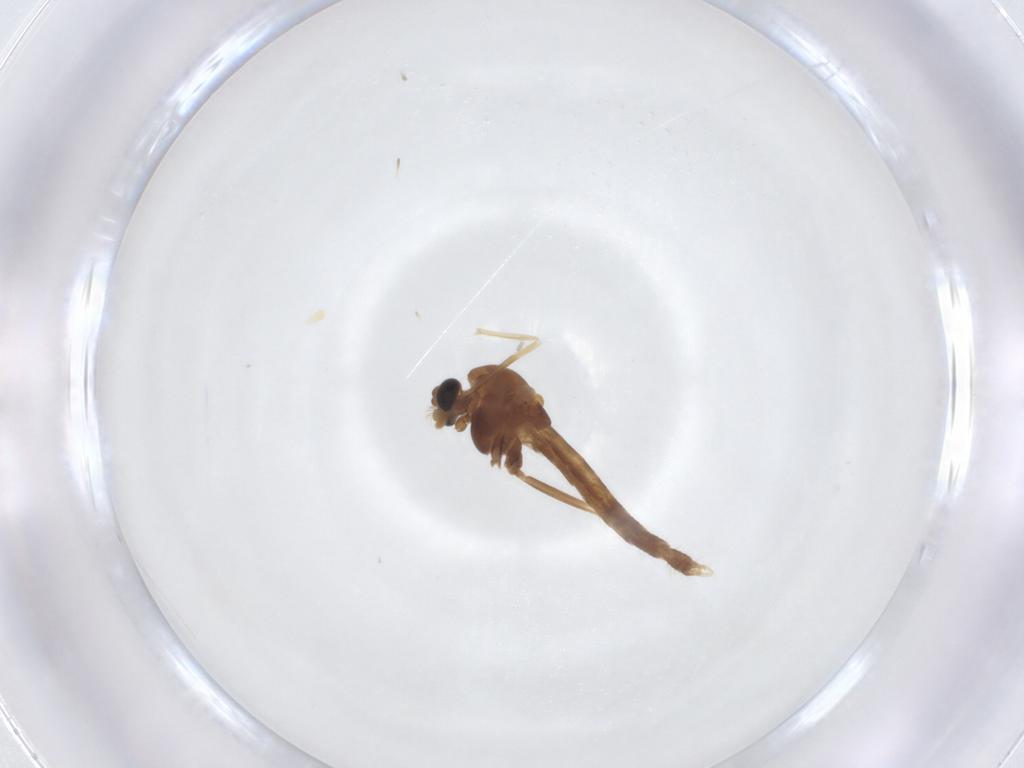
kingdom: Animalia
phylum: Arthropoda
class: Insecta
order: Diptera
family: Chironomidae
